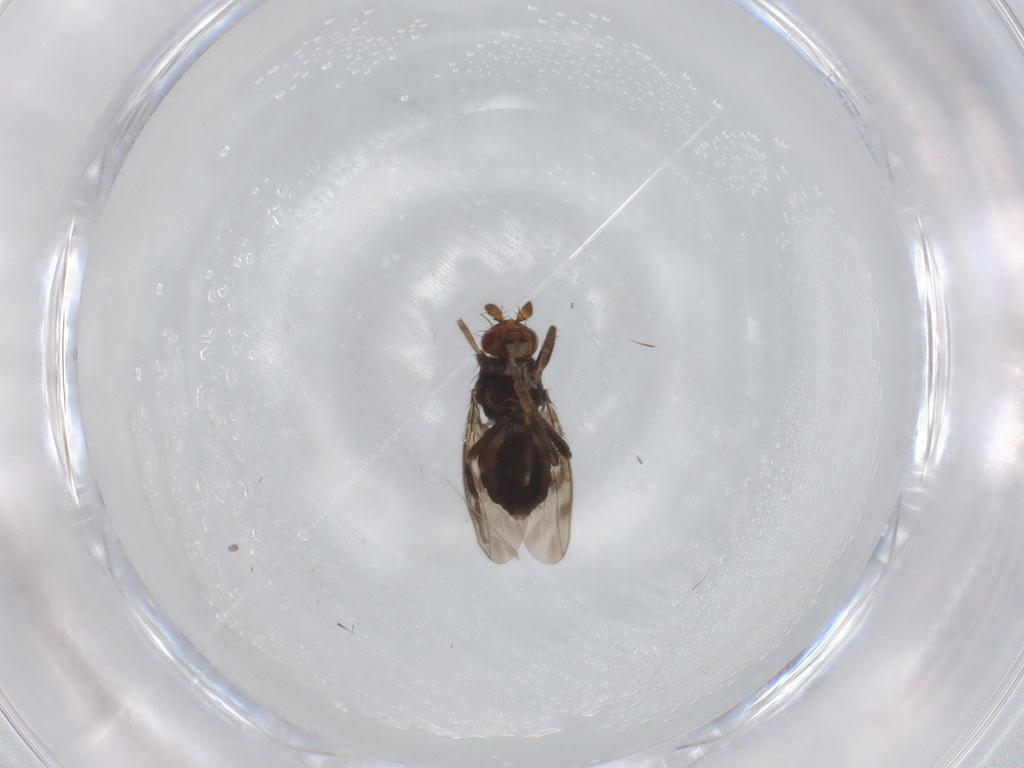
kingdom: Animalia
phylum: Arthropoda
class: Insecta
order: Diptera
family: Sphaeroceridae
